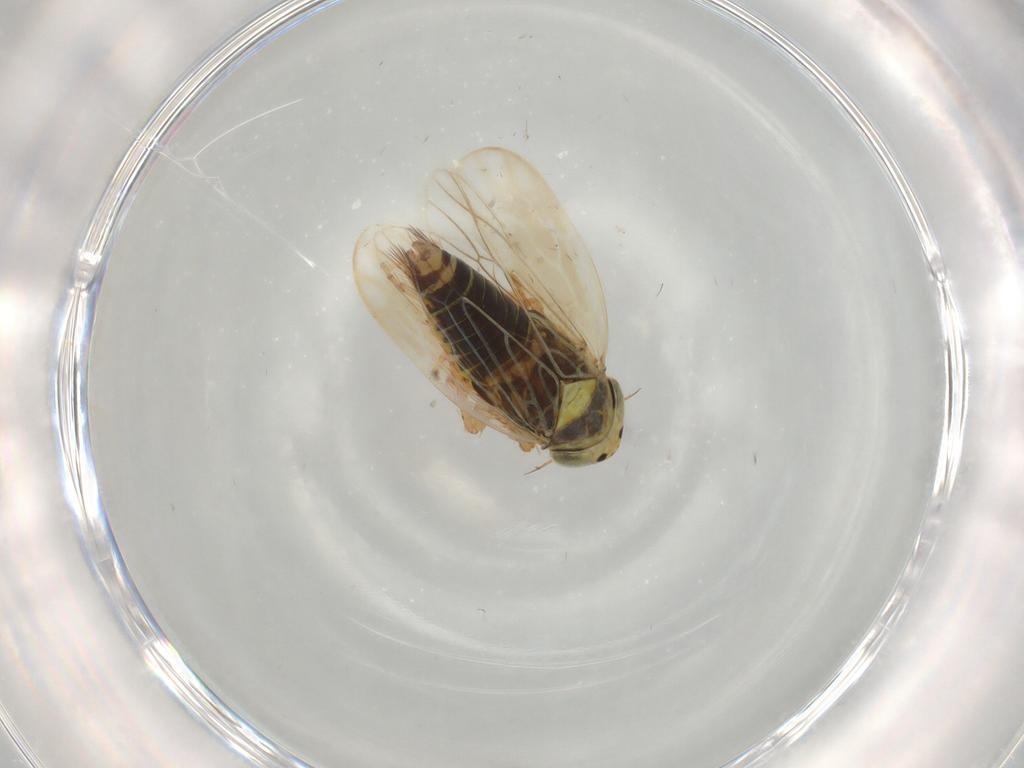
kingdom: Animalia
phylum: Arthropoda
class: Insecta
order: Hemiptera
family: Cicadellidae
